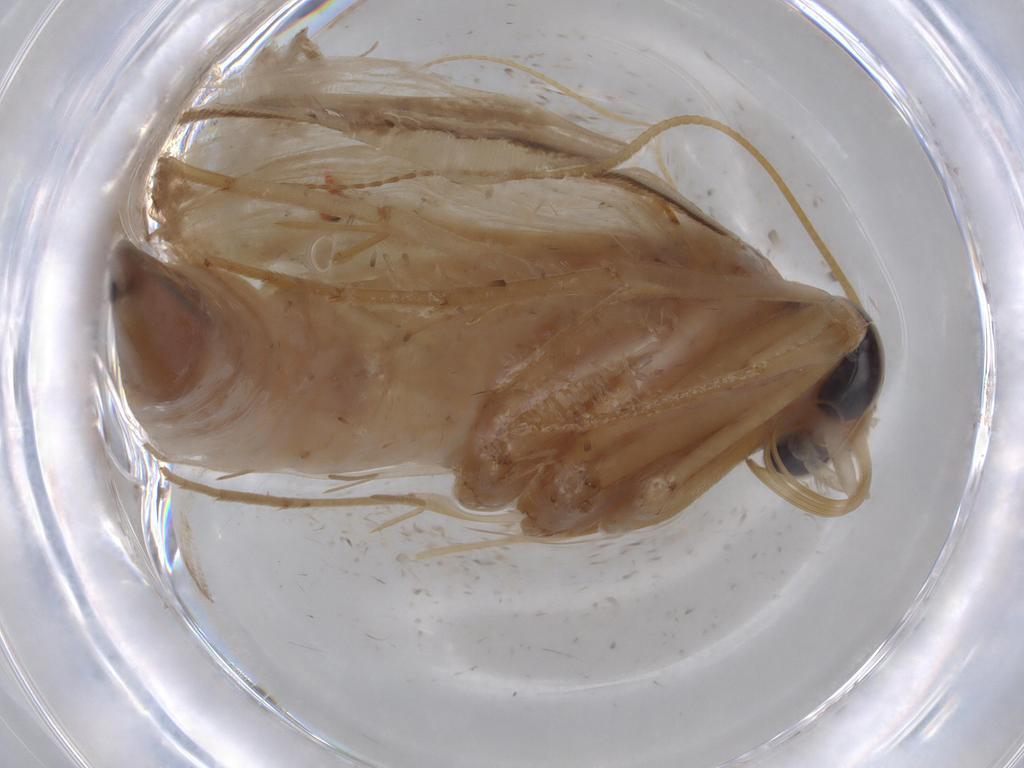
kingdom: Animalia
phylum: Arthropoda
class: Insecta
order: Lepidoptera
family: Crambidae
